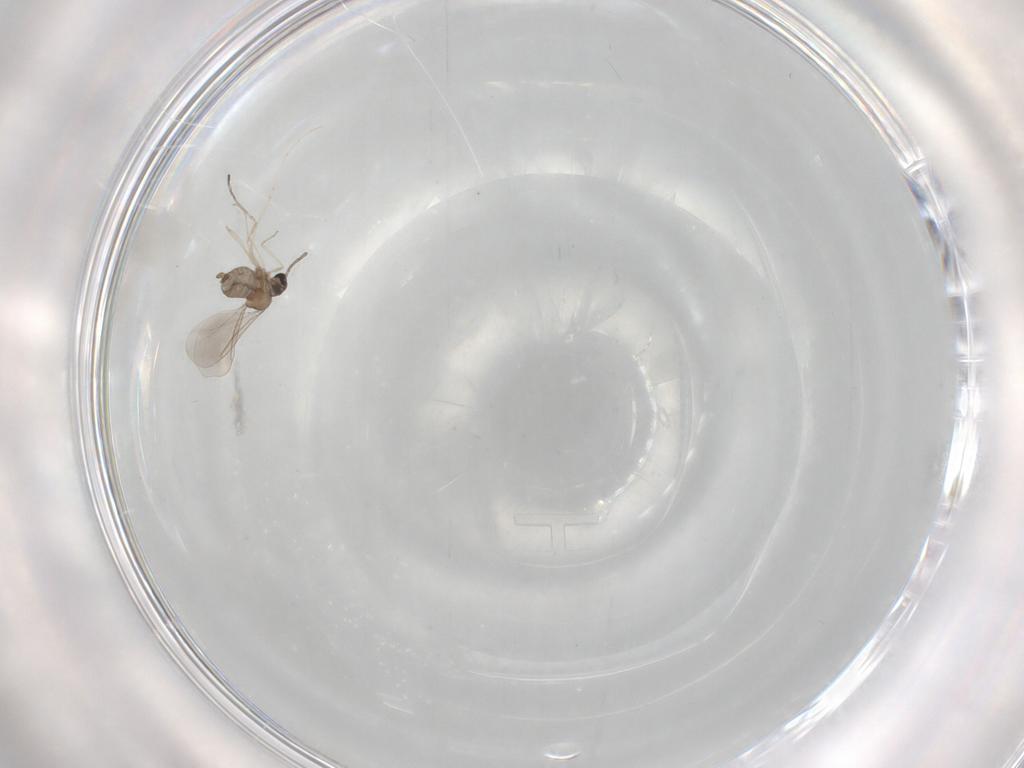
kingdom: Animalia
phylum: Arthropoda
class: Insecta
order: Diptera
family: Cecidomyiidae
